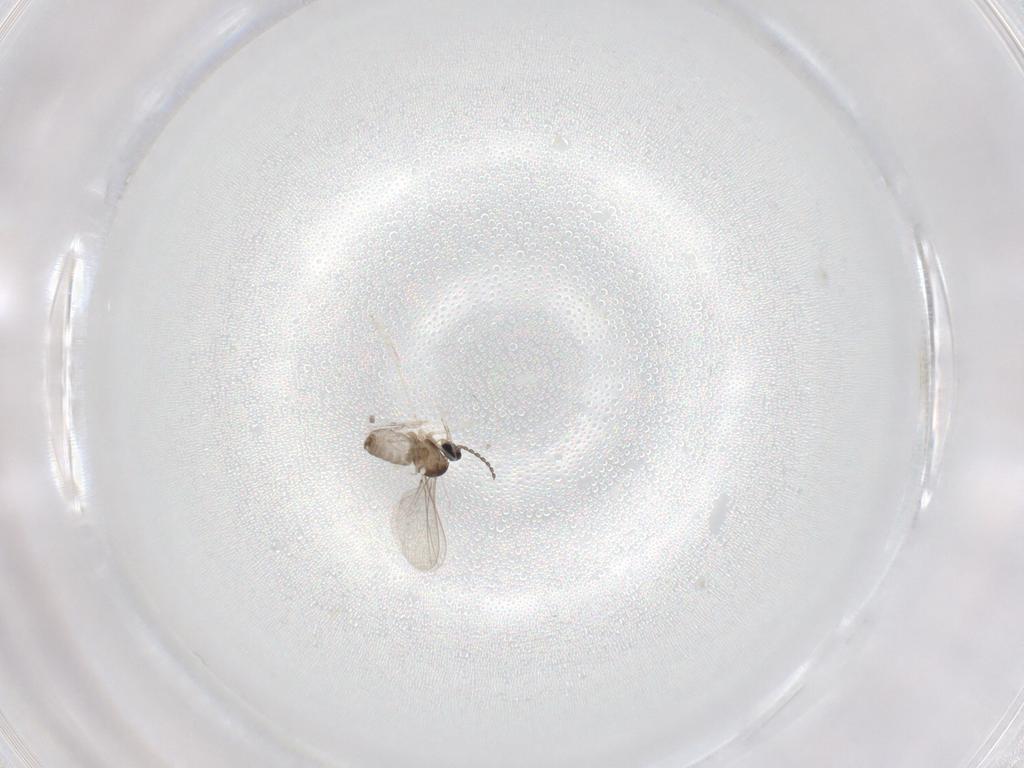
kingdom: Animalia
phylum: Arthropoda
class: Insecta
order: Diptera
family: Cecidomyiidae
